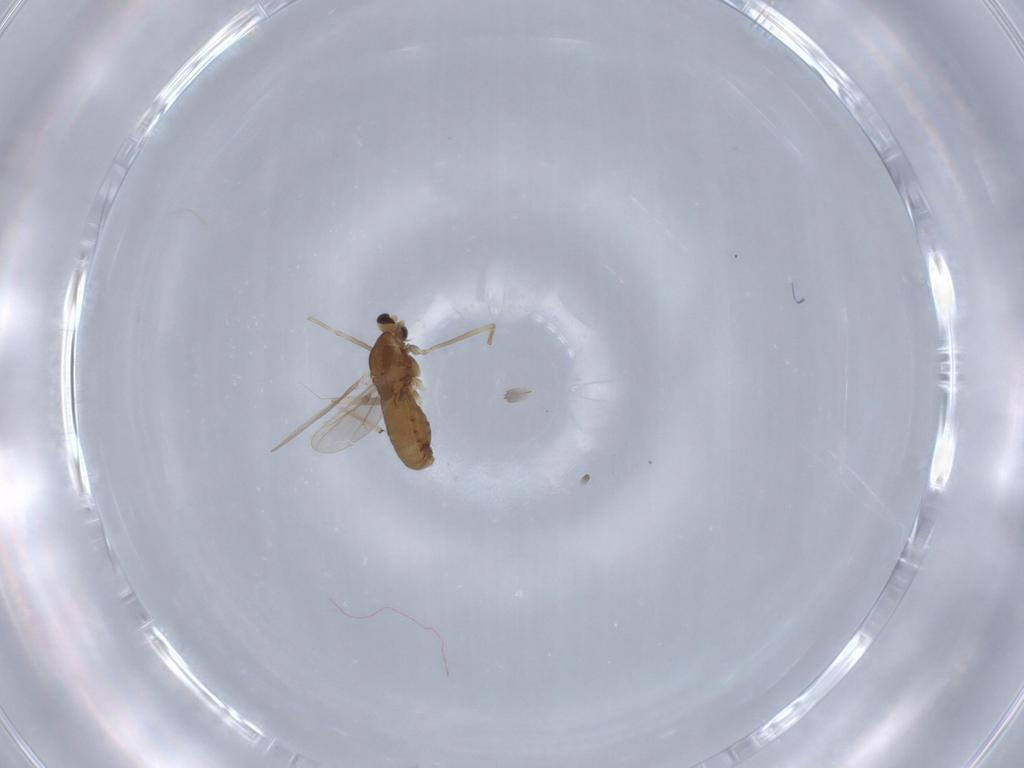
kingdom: Animalia
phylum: Arthropoda
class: Insecta
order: Diptera
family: Chironomidae
